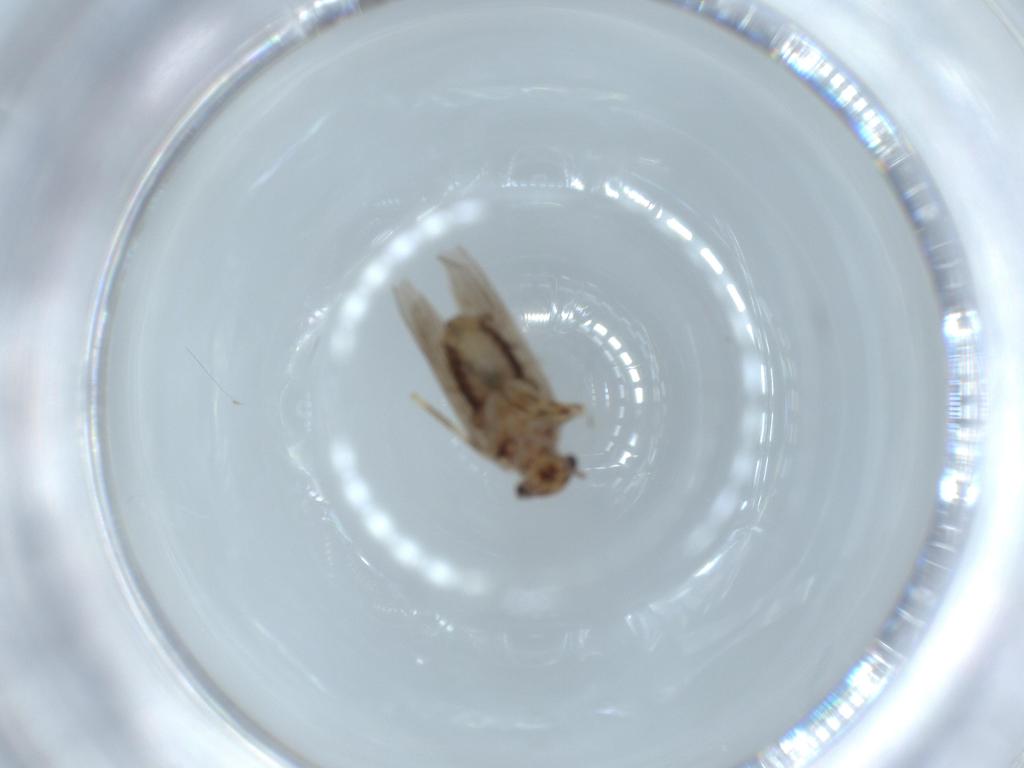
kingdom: Animalia
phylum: Arthropoda
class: Insecta
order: Psocodea
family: Lepidopsocidae
